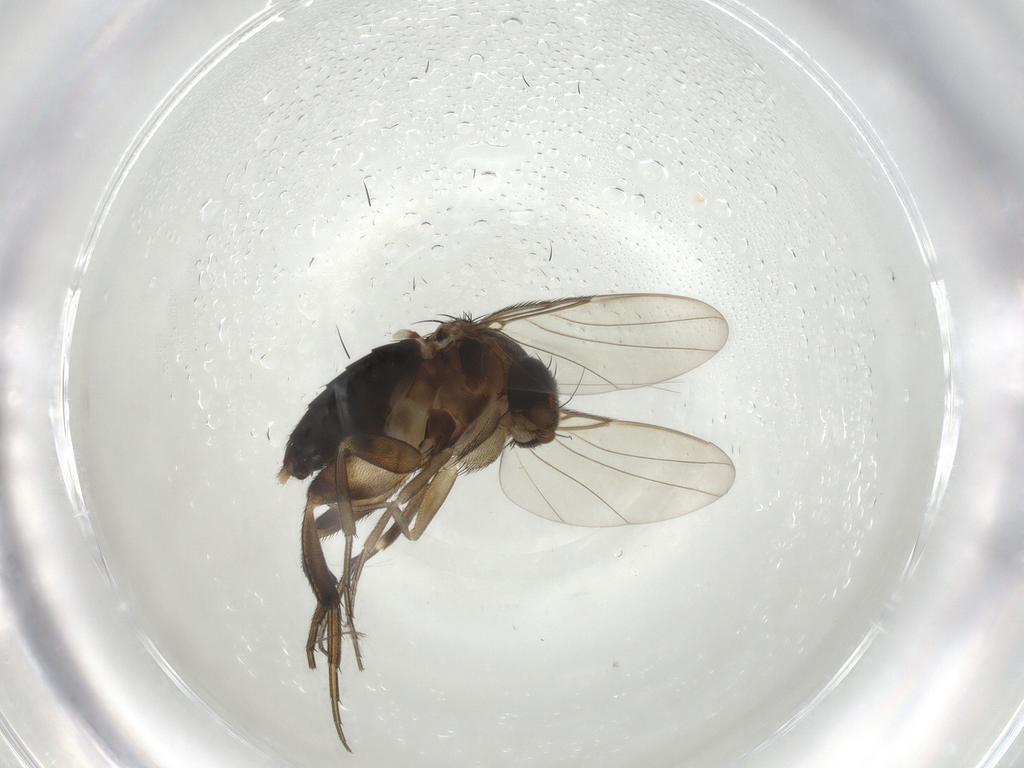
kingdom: Animalia
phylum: Arthropoda
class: Insecta
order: Diptera
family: Phoridae
